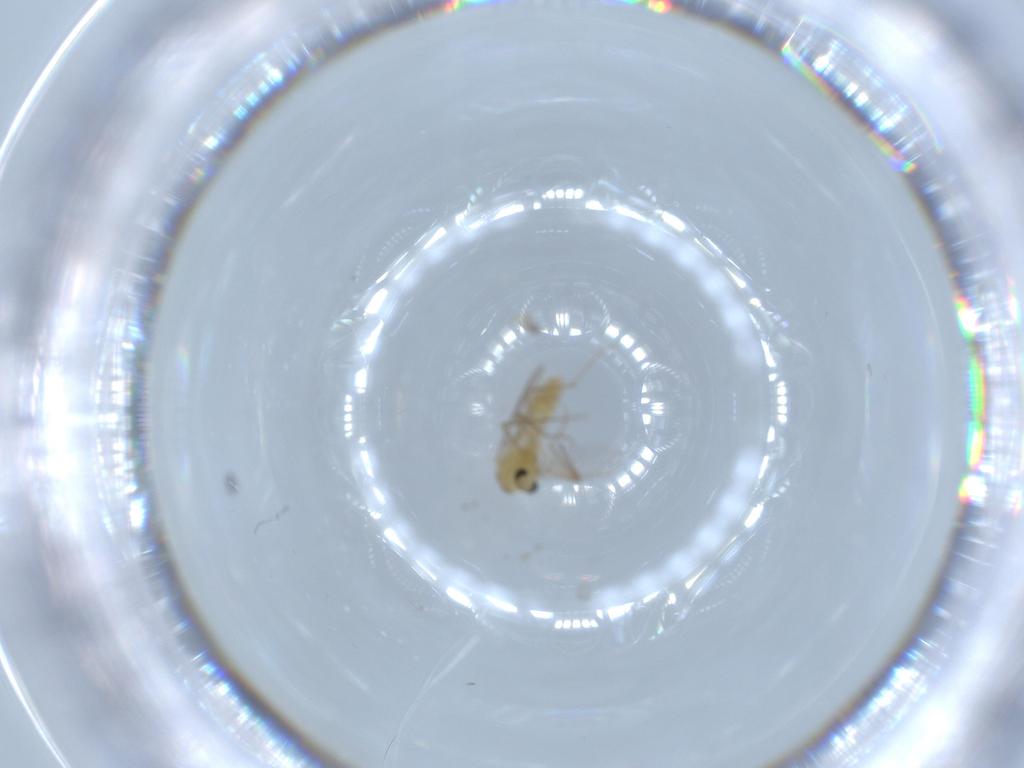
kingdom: Animalia
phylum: Arthropoda
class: Insecta
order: Diptera
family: Chironomidae
